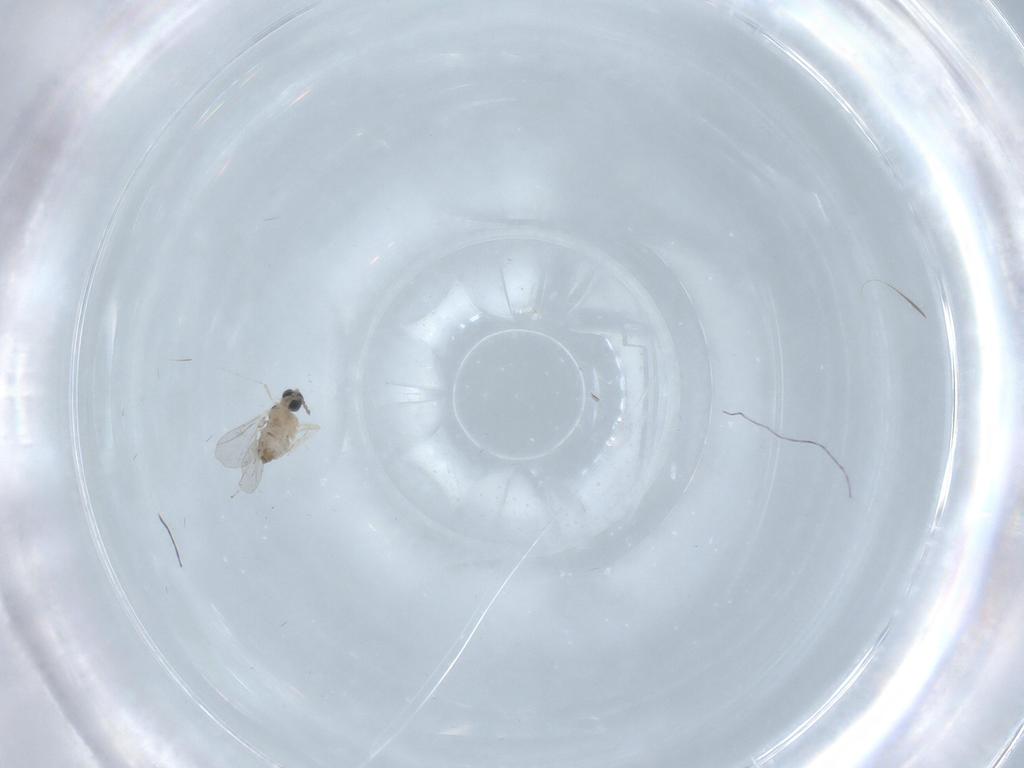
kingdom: Animalia
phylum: Arthropoda
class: Insecta
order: Diptera
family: Cecidomyiidae
